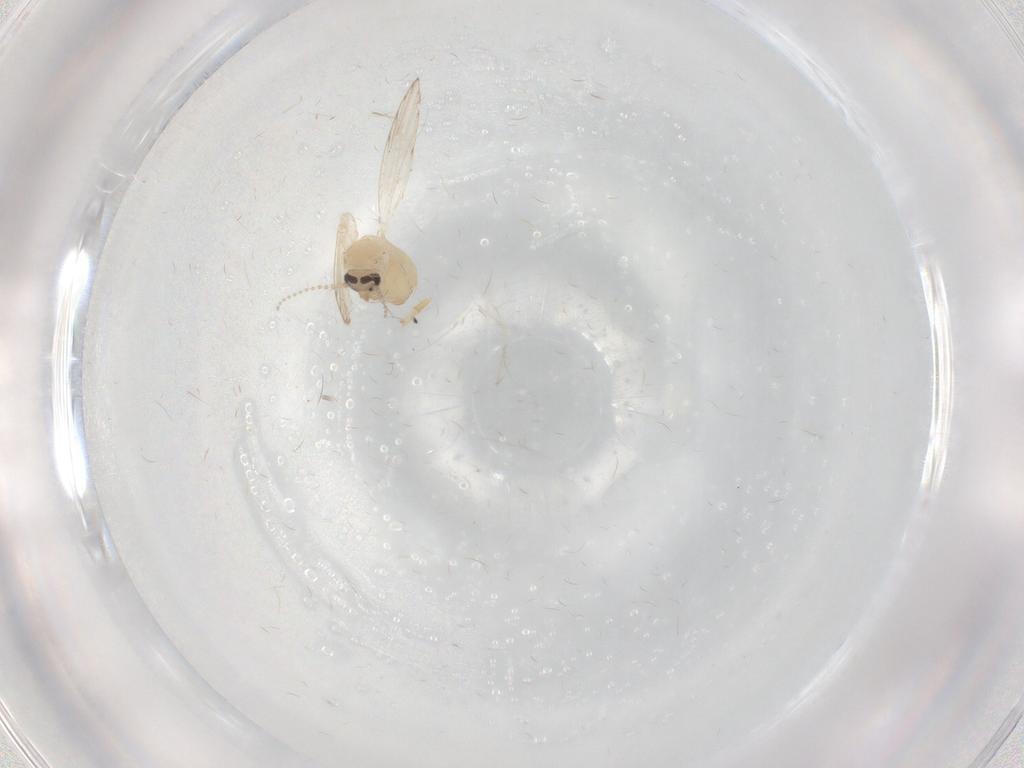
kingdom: Animalia
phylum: Arthropoda
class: Insecta
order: Diptera
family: Psychodidae
